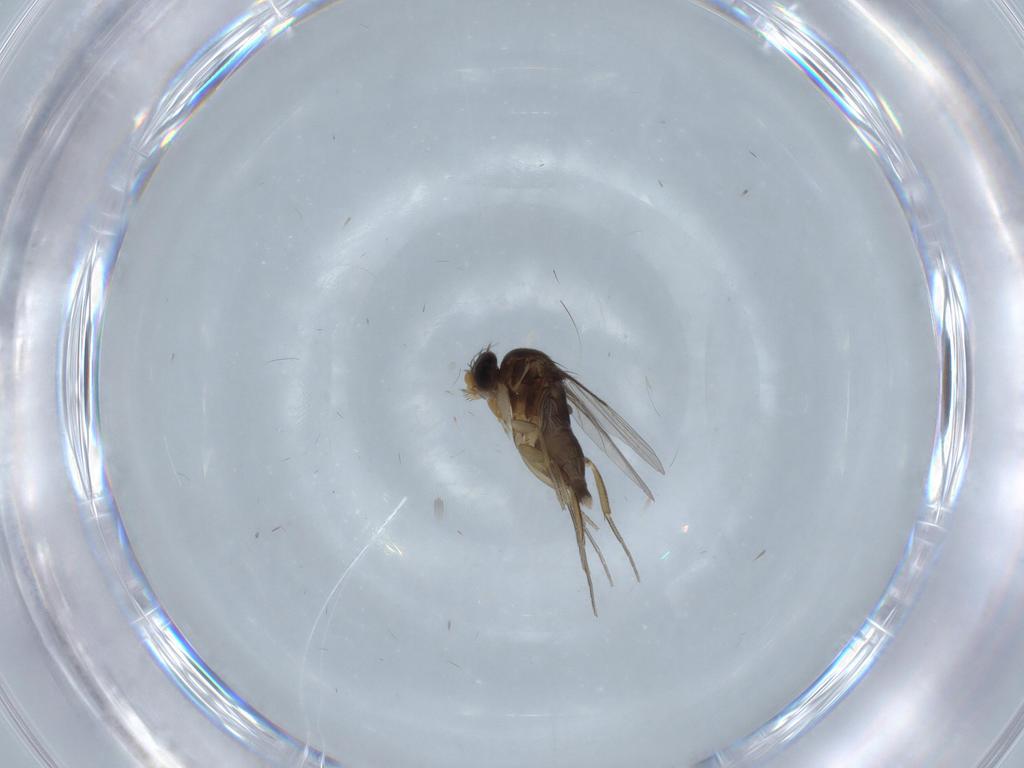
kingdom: Animalia
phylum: Arthropoda
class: Insecta
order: Diptera
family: Phoridae
